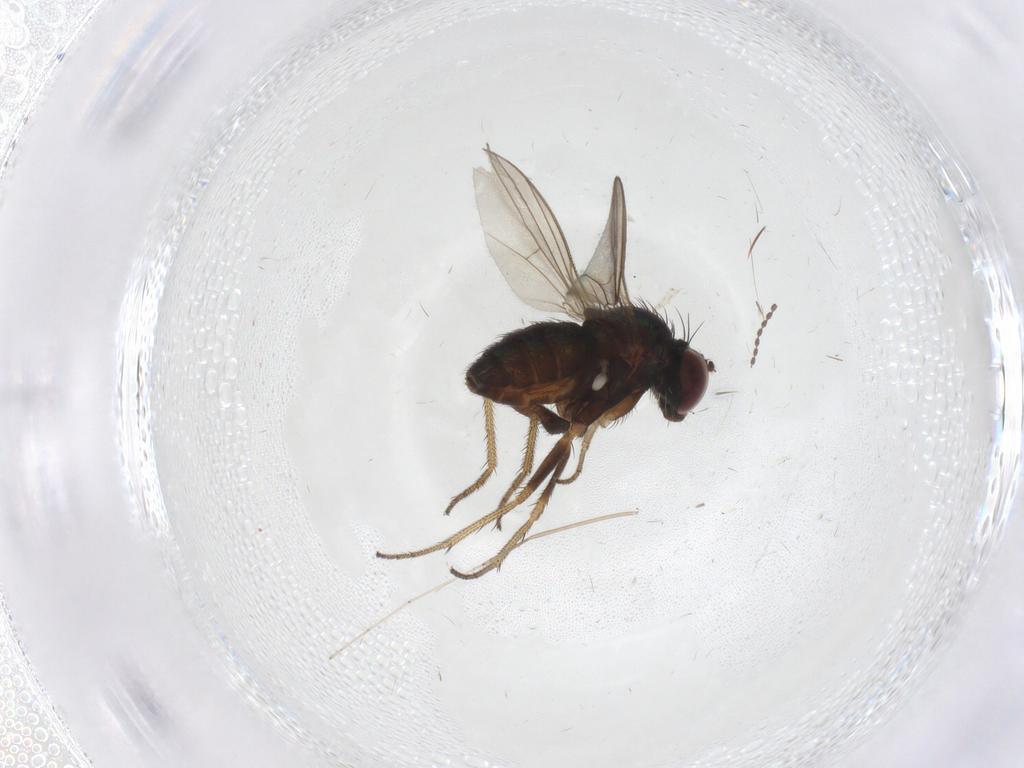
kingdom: Animalia
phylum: Arthropoda
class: Insecta
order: Diptera
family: Cecidomyiidae
